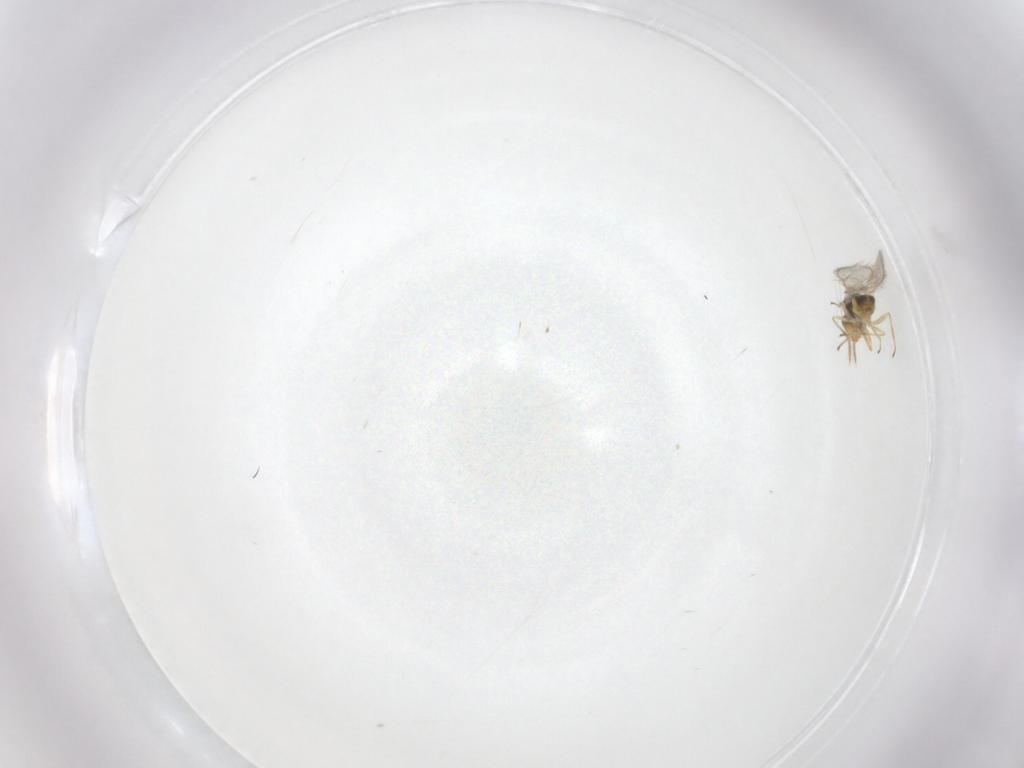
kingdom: Animalia
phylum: Arthropoda
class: Insecta
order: Hymenoptera
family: Eulophidae
